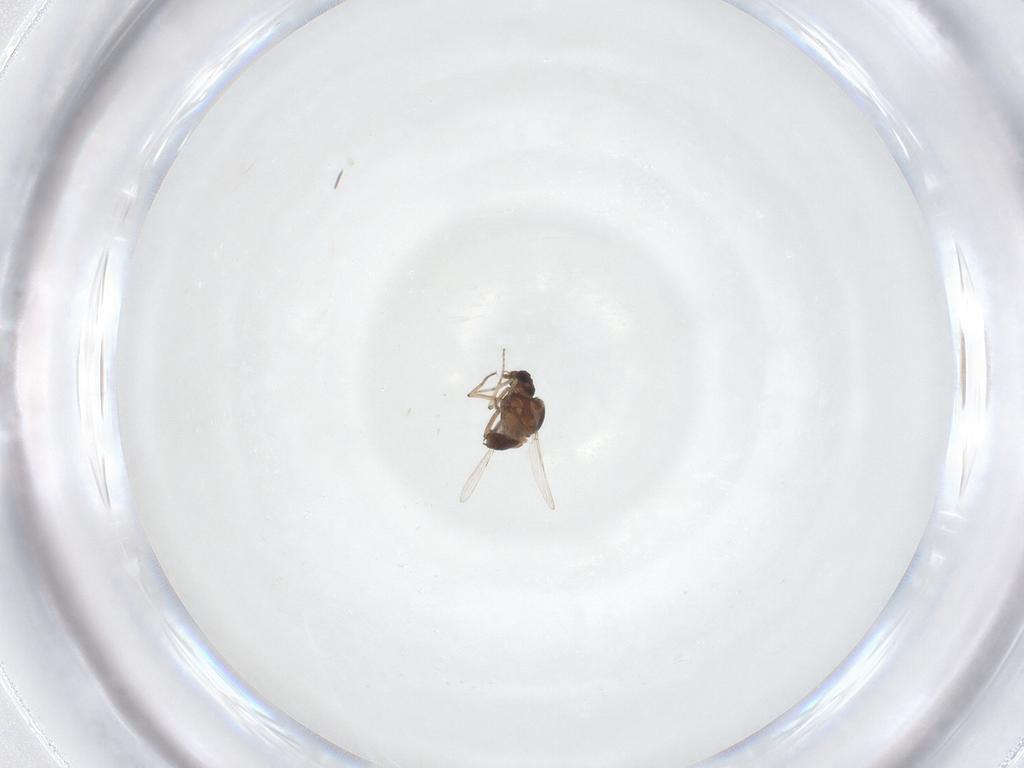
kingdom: Animalia
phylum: Arthropoda
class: Insecta
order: Diptera
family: Ceratopogonidae
